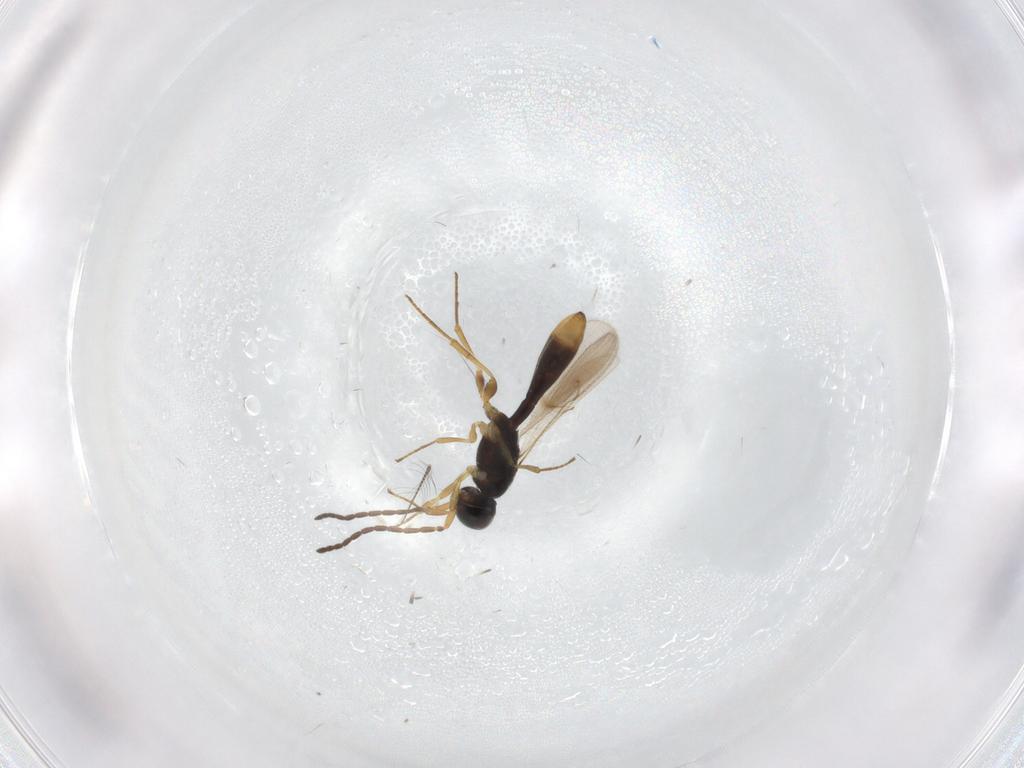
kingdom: Animalia
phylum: Arthropoda
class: Insecta
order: Hymenoptera
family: Scelionidae
